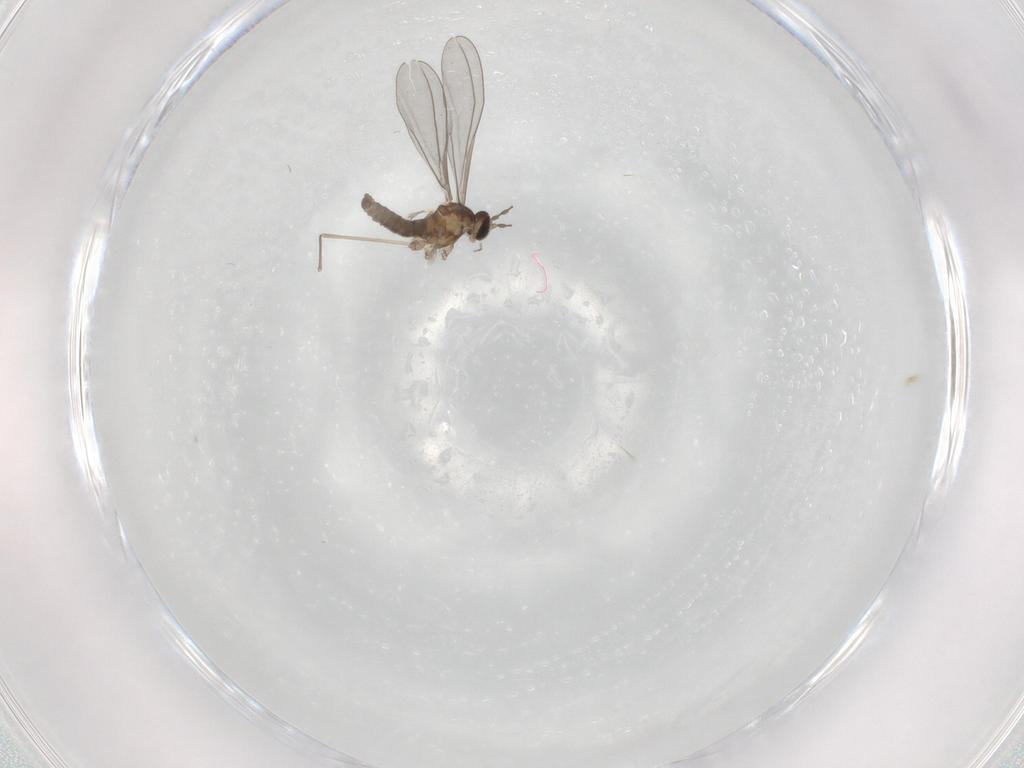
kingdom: Animalia
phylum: Arthropoda
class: Insecta
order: Diptera
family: Cecidomyiidae
